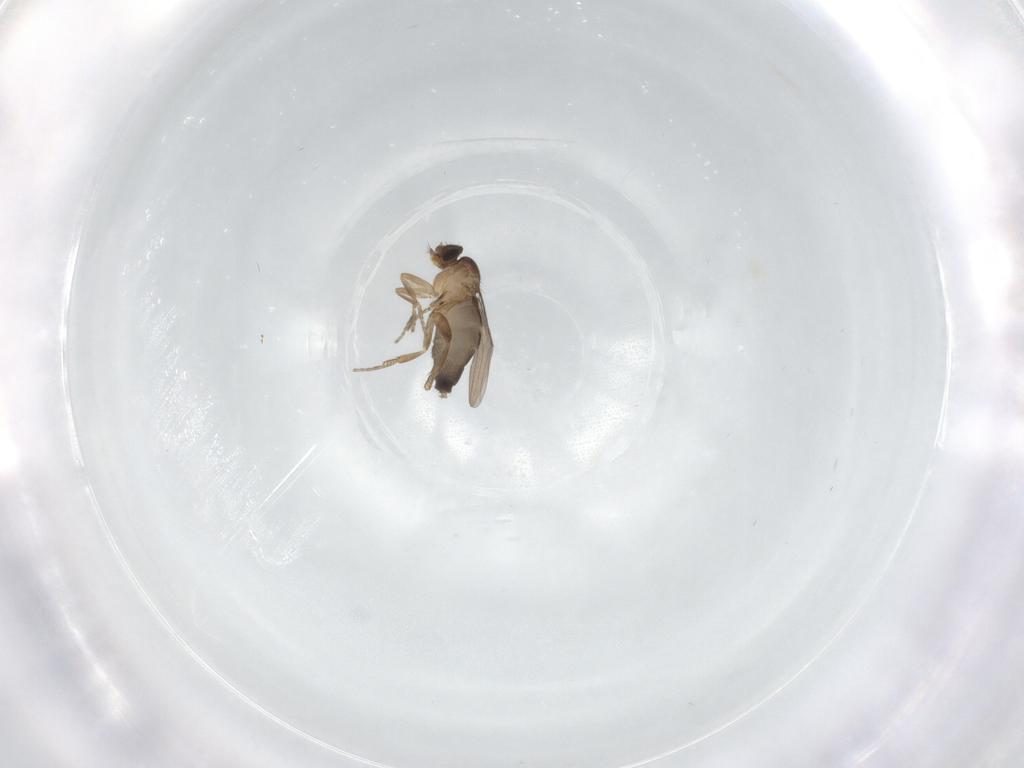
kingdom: Animalia
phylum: Arthropoda
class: Insecta
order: Diptera
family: Phoridae
